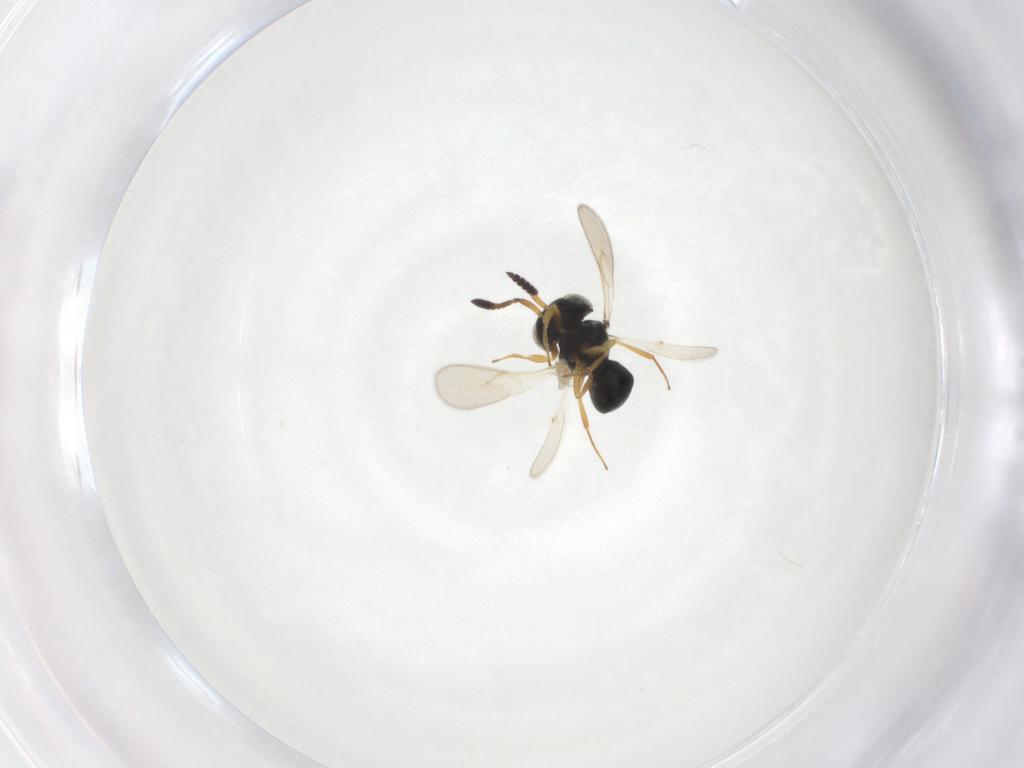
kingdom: Animalia
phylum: Arthropoda
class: Insecta
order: Hymenoptera
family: Scelionidae
